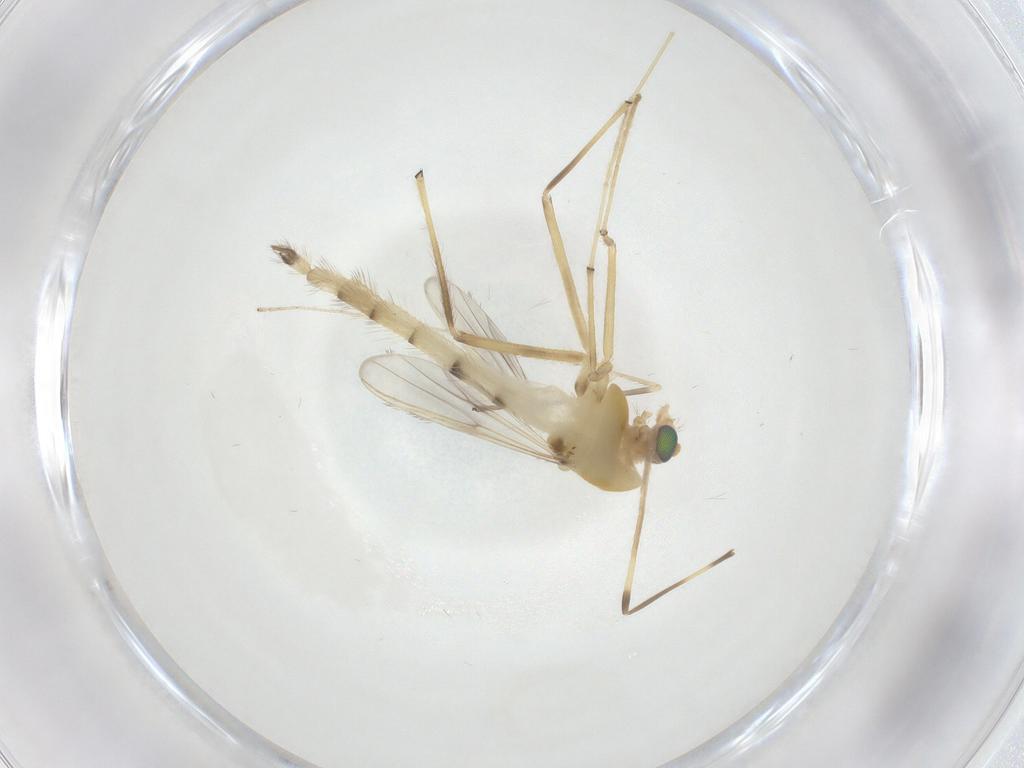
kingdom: Animalia
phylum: Arthropoda
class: Insecta
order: Diptera
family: Chironomidae
